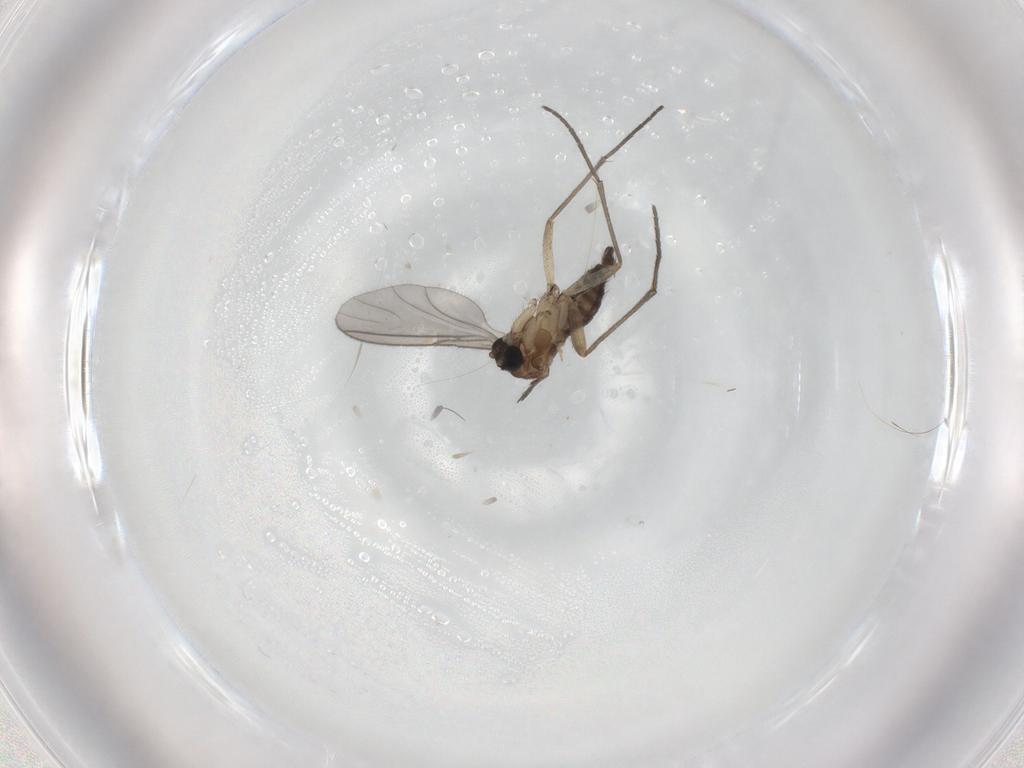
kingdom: Animalia
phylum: Arthropoda
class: Insecta
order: Diptera
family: Sciaridae
